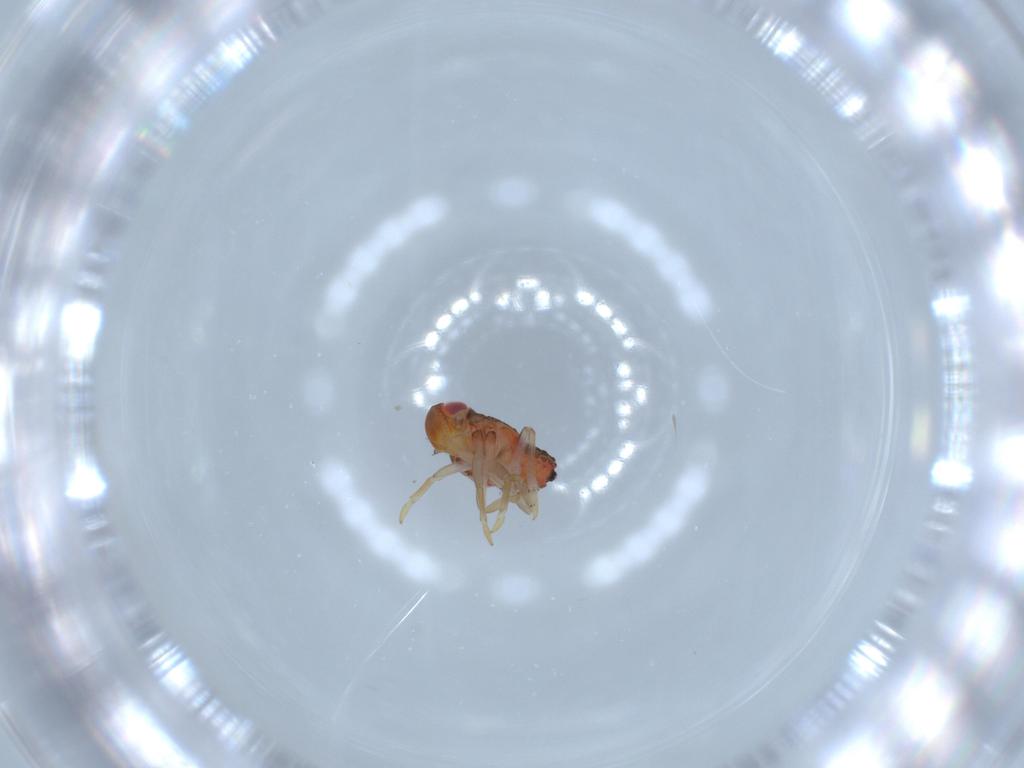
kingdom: Animalia
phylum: Arthropoda
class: Insecta
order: Hemiptera
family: Issidae
